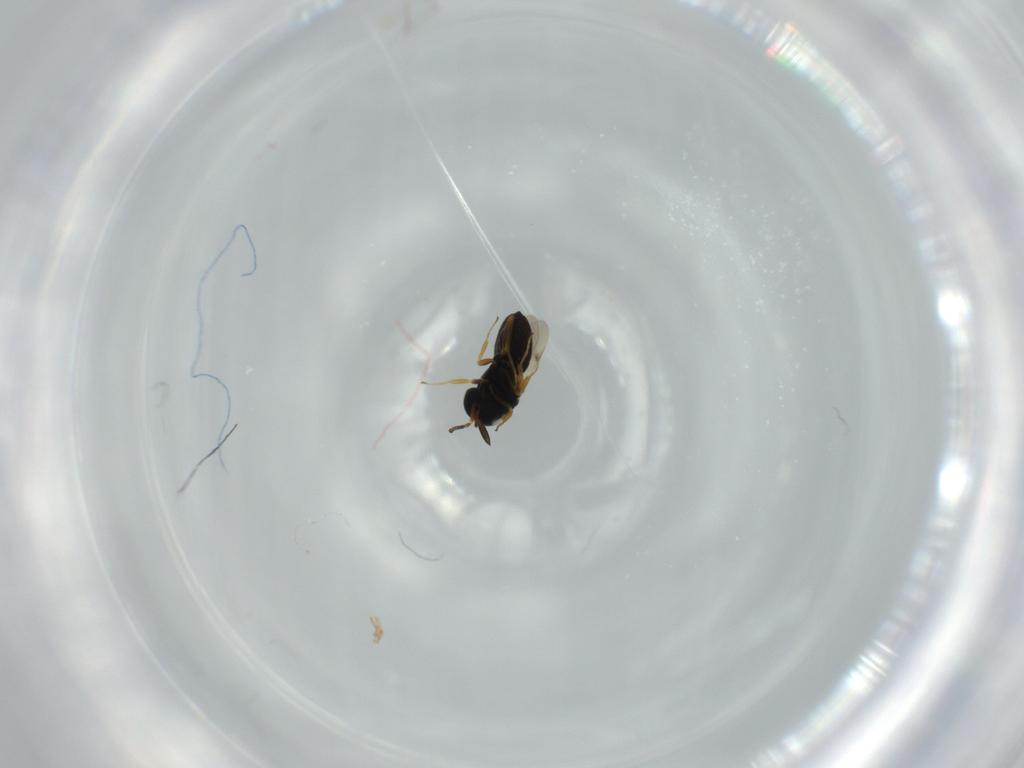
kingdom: Animalia
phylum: Arthropoda
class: Insecta
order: Hymenoptera
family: Scelionidae
